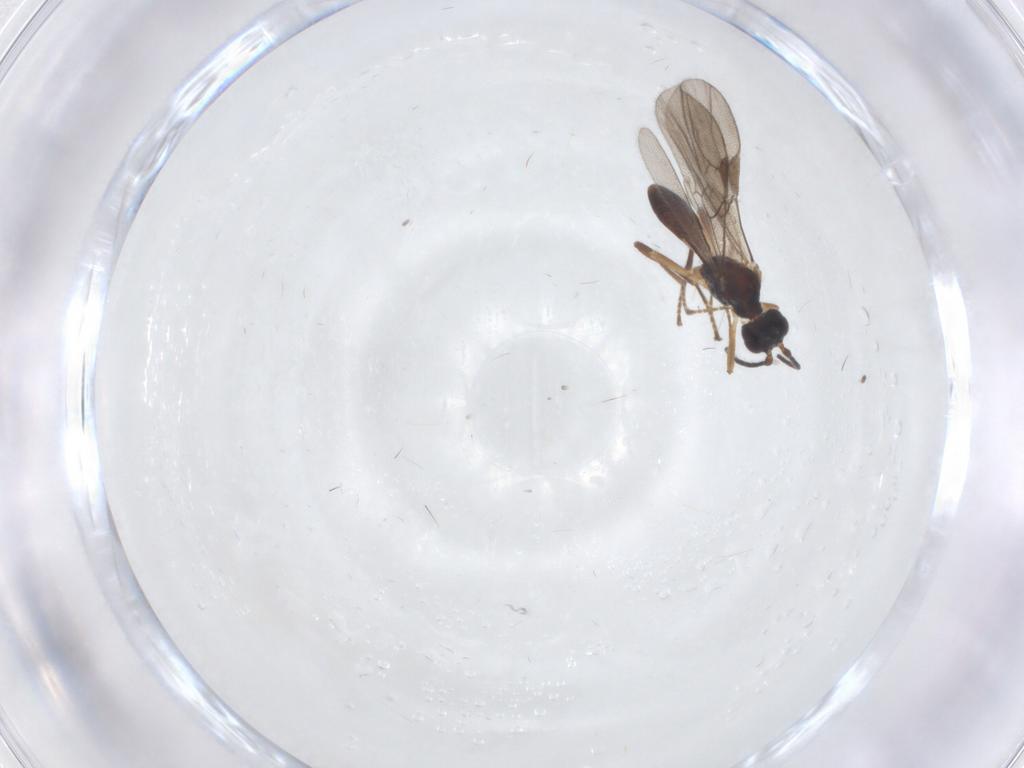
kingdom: Animalia
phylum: Arthropoda
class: Insecta
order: Hymenoptera
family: Braconidae
